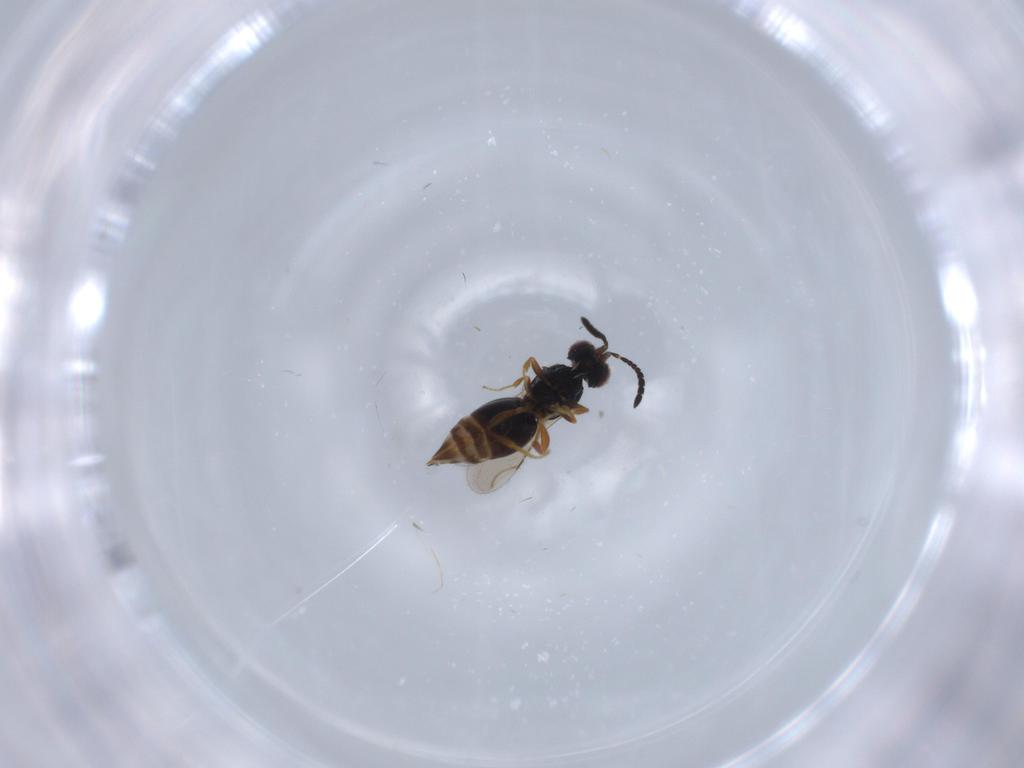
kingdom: Animalia
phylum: Arthropoda
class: Insecta
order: Hymenoptera
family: Ceraphronidae
